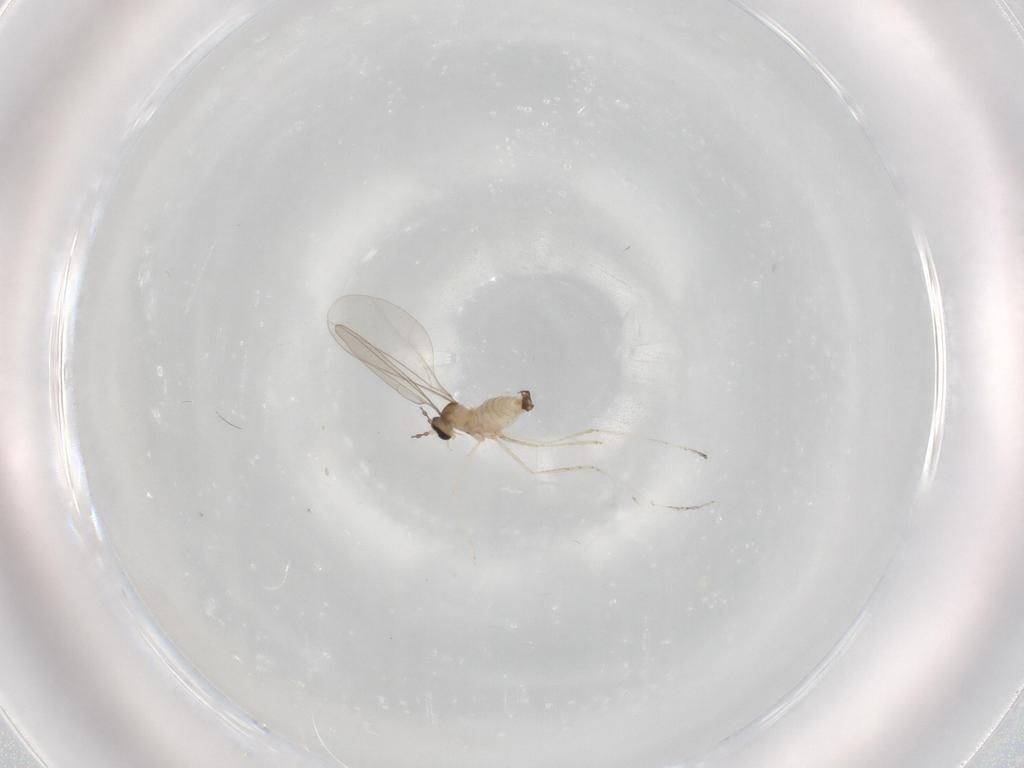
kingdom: Animalia
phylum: Arthropoda
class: Insecta
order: Diptera
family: Cecidomyiidae
